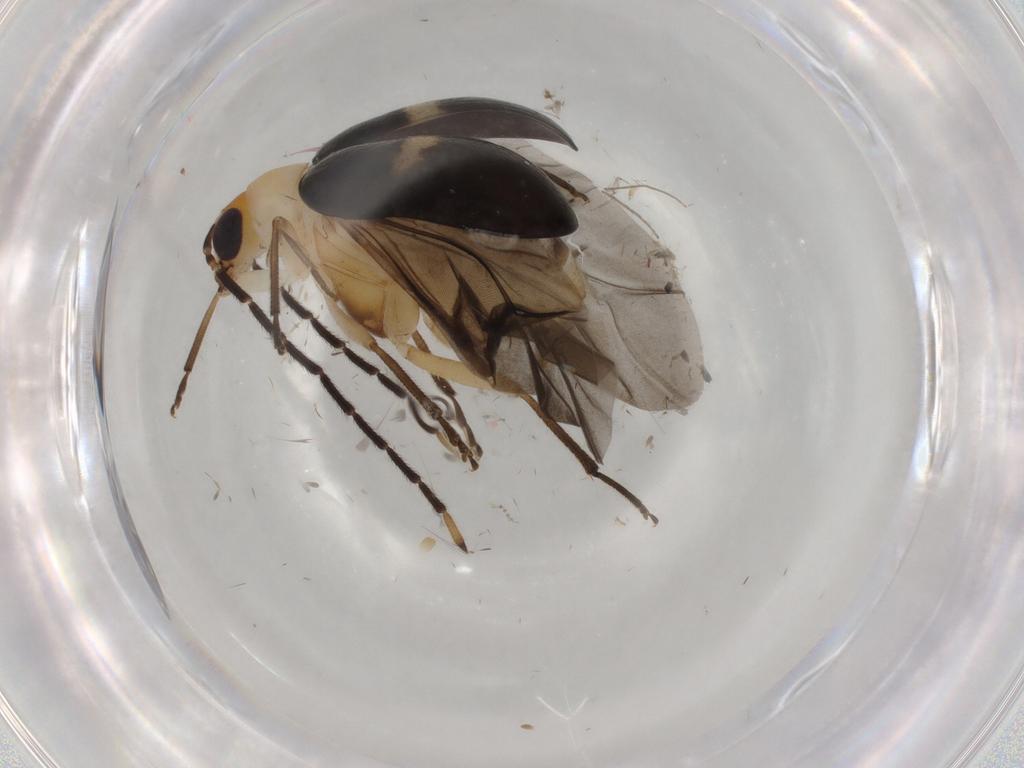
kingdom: Animalia
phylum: Arthropoda
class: Insecta
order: Coleoptera
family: Chrysomelidae
